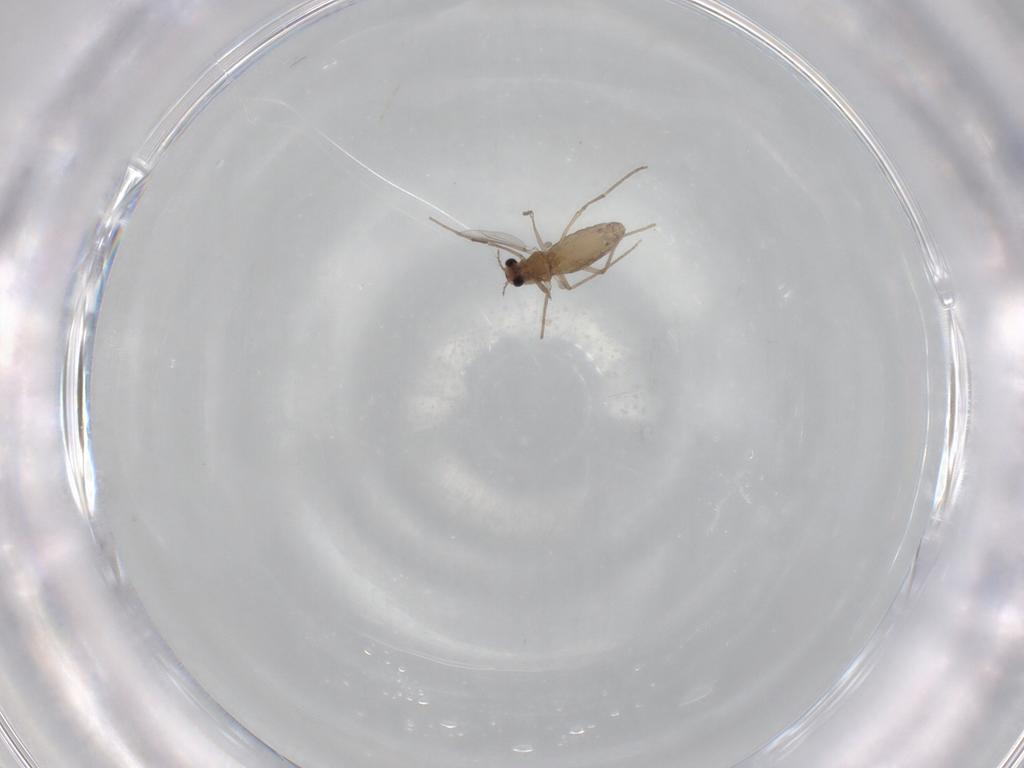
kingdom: Animalia
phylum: Arthropoda
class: Insecta
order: Diptera
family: Chironomidae
